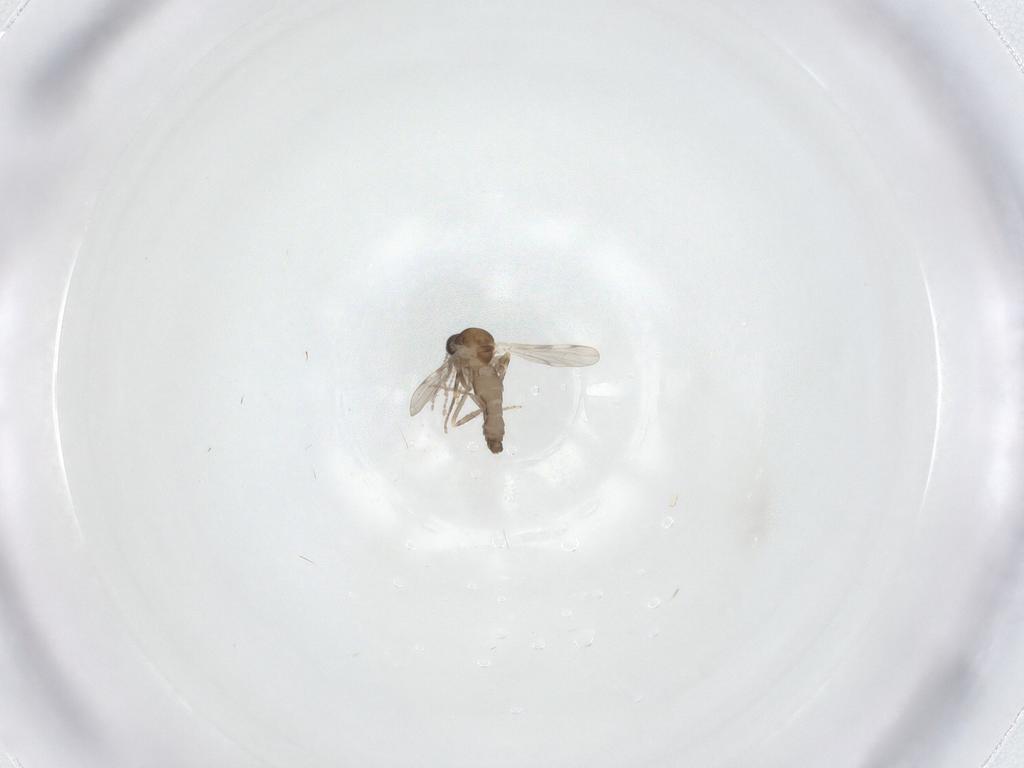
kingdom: Animalia
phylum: Arthropoda
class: Insecta
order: Diptera
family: Ceratopogonidae
